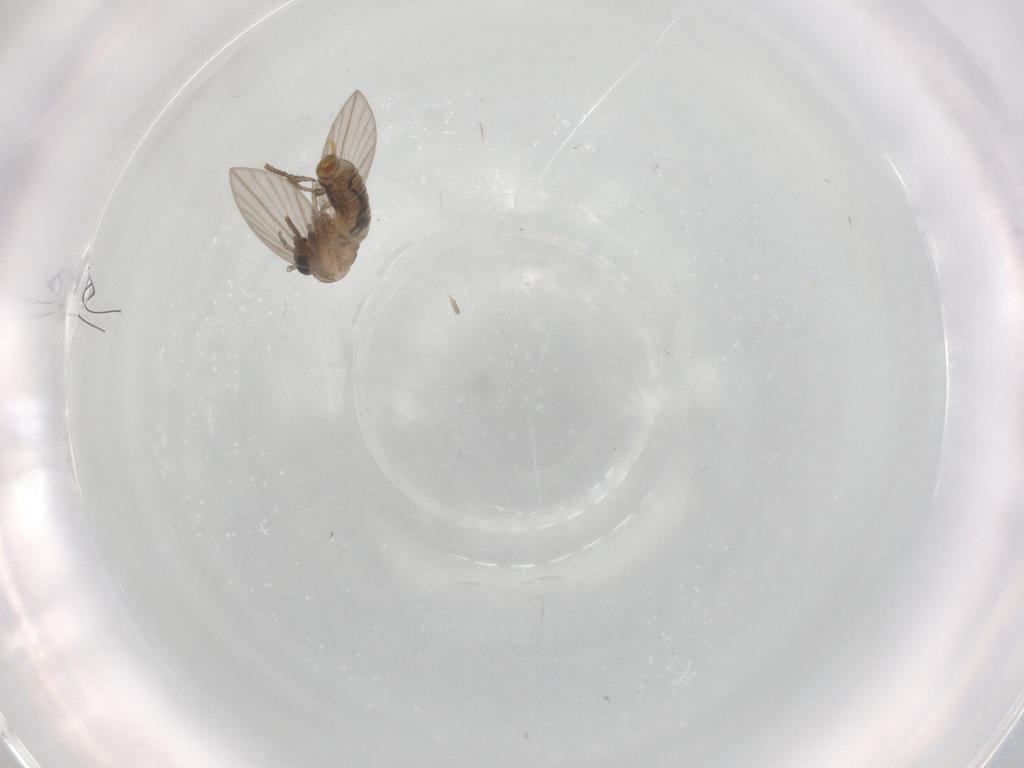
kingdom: Animalia
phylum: Arthropoda
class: Insecta
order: Diptera
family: Psychodidae
